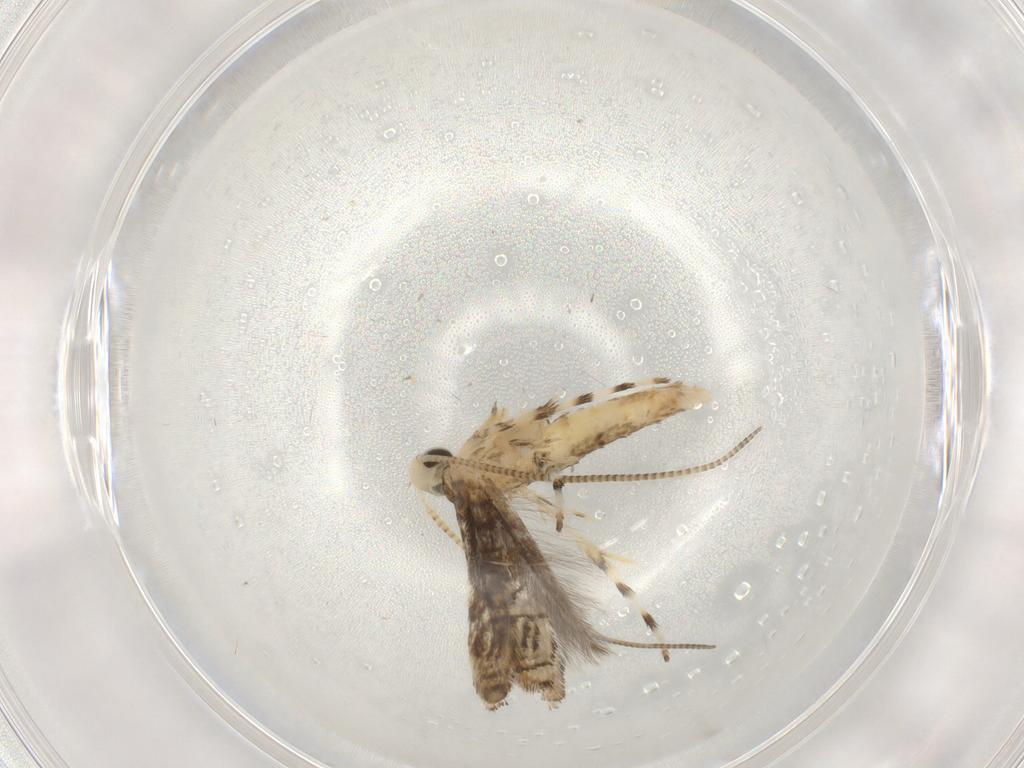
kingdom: Animalia
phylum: Arthropoda
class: Insecta
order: Lepidoptera
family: Gracillariidae
